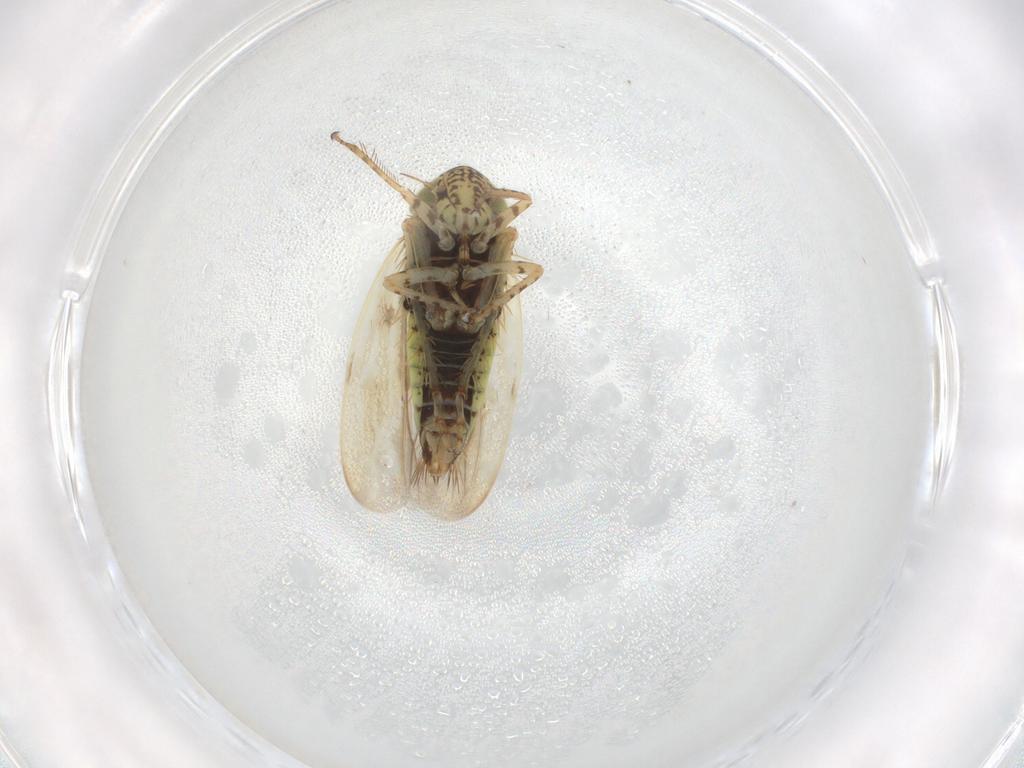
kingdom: Animalia
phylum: Arthropoda
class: Insecta
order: Hemiptera
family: Cicadellidae
